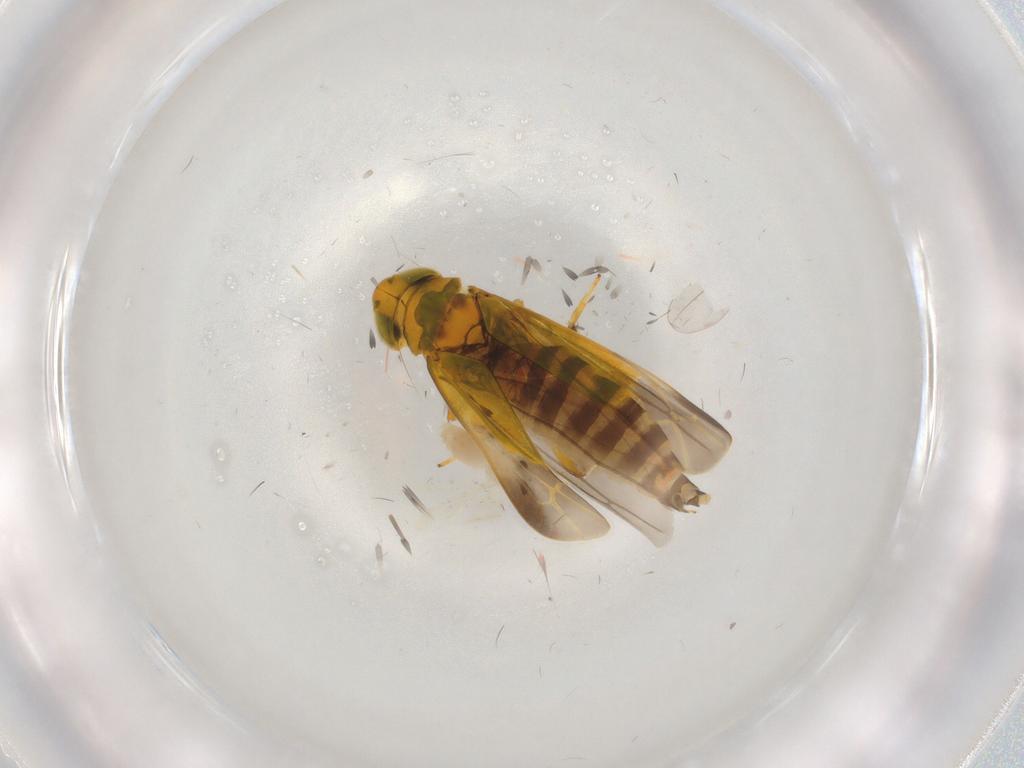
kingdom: Animalia
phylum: Arthropoda
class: Insecta
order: Hemiptera
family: Cicadellidae
